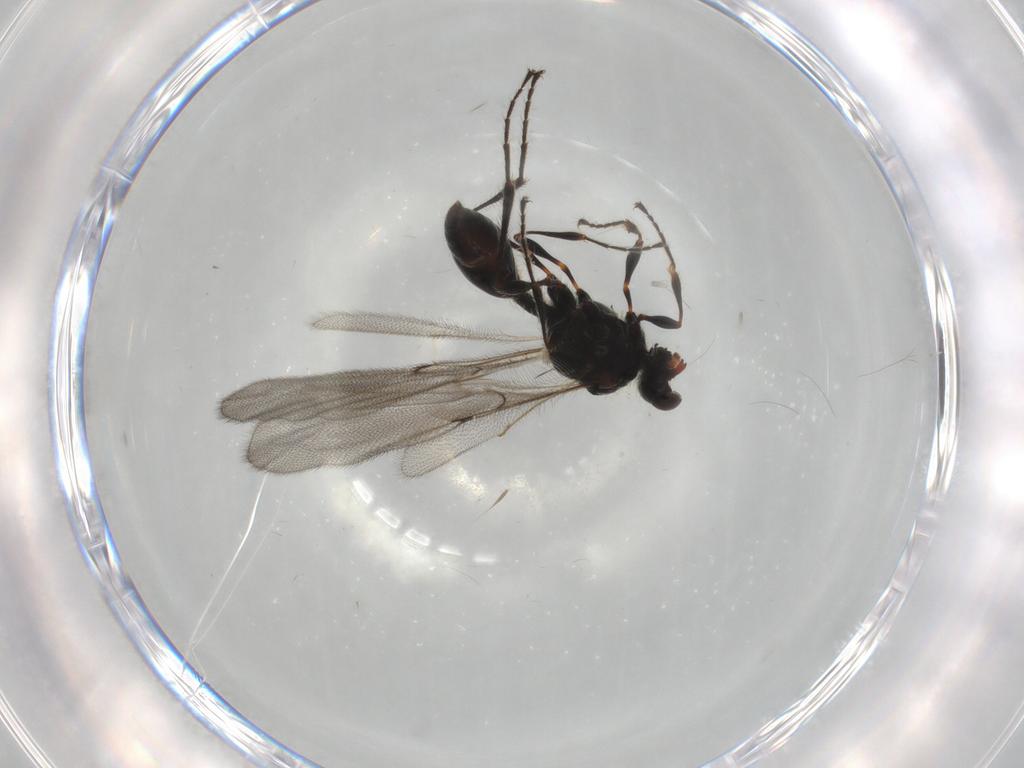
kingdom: Animalia
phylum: Arthropoda
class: Insecta
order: Hymenoptera
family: Diapriidae
